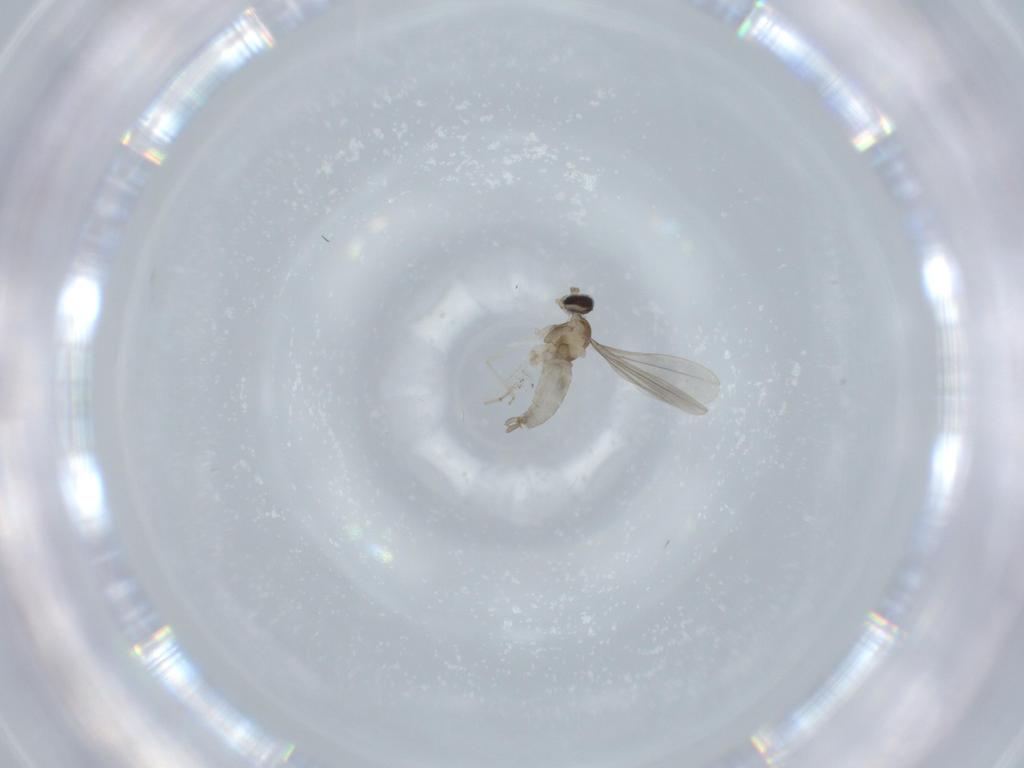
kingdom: Animalia
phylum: Arthropoda
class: Insecta
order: Diptera
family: Cecidomyiidae
